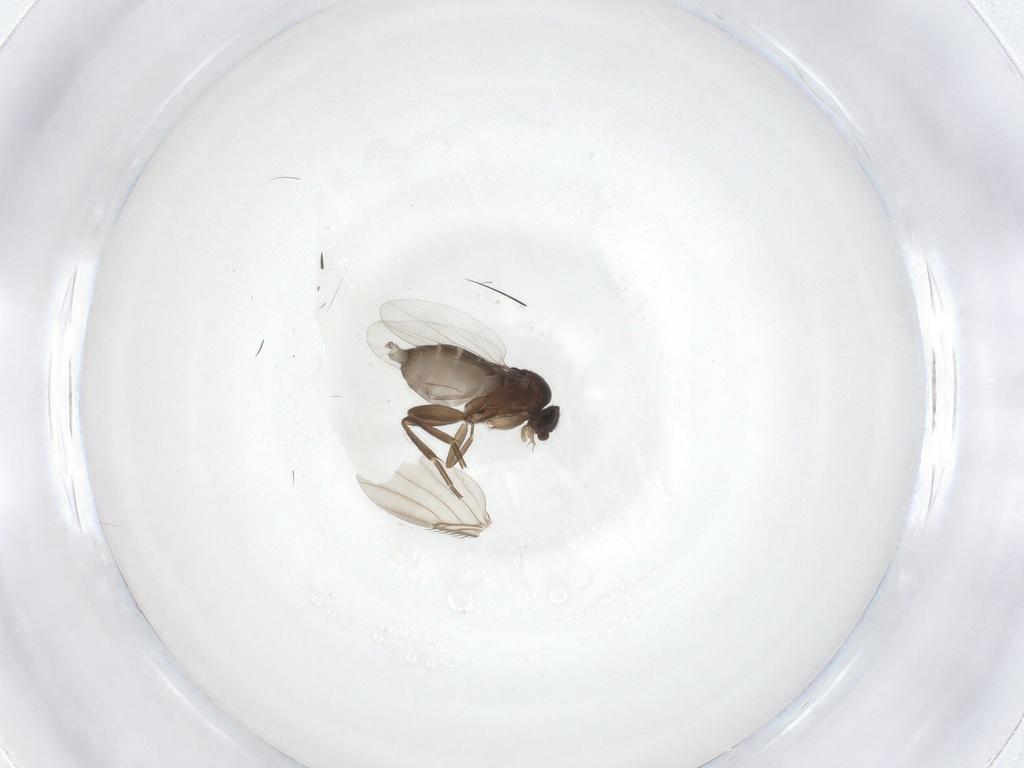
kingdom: Animalia
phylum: Arthropoda
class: Insecta
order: Diptera
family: Phoridae
